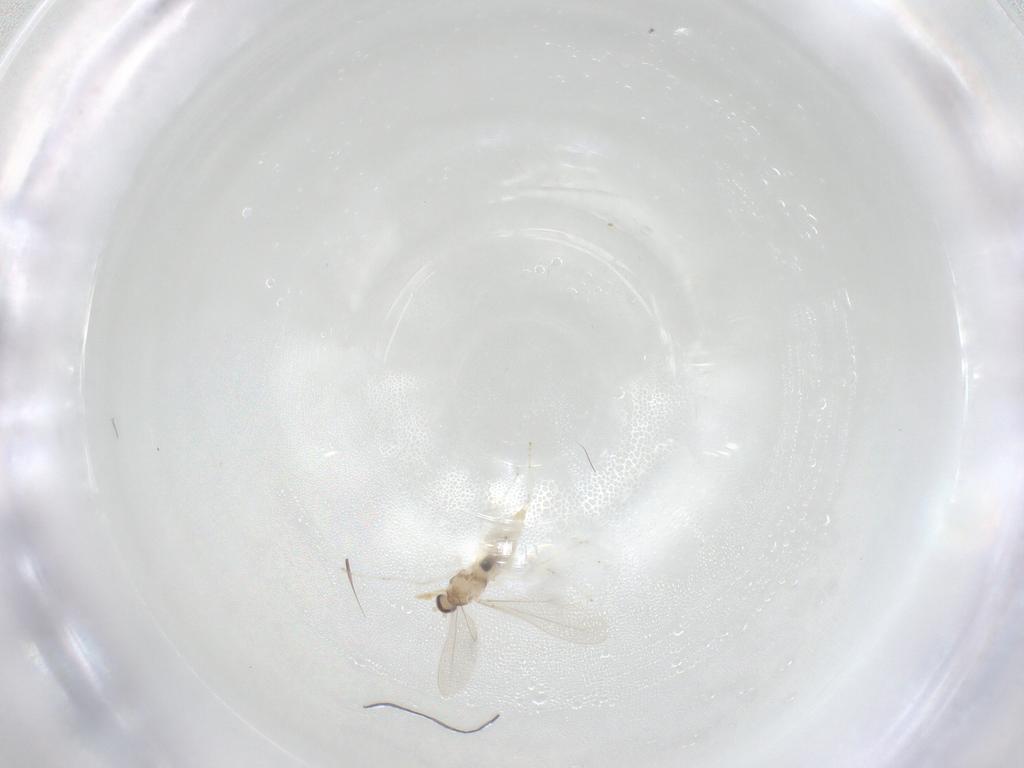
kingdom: Animalia
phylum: Arthropoda
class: Insecta
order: Diptera
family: Cecidomyiidae
